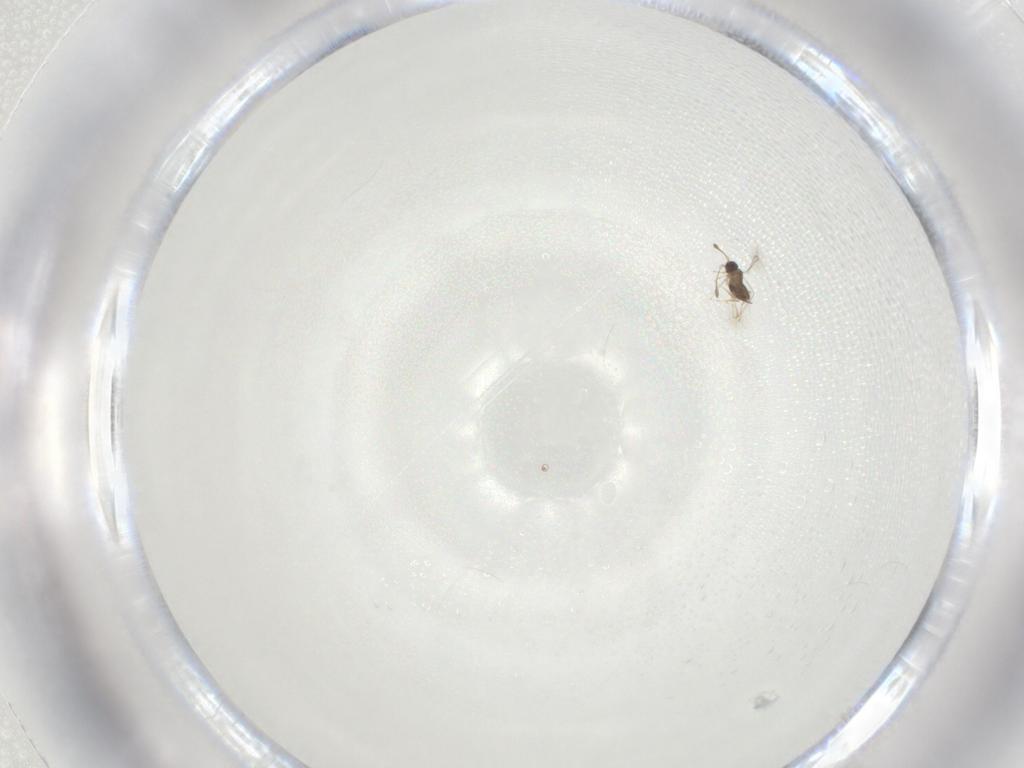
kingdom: Animalia
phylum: Arthropoda
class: Insecta
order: Hymenoptera
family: Mymaridae
